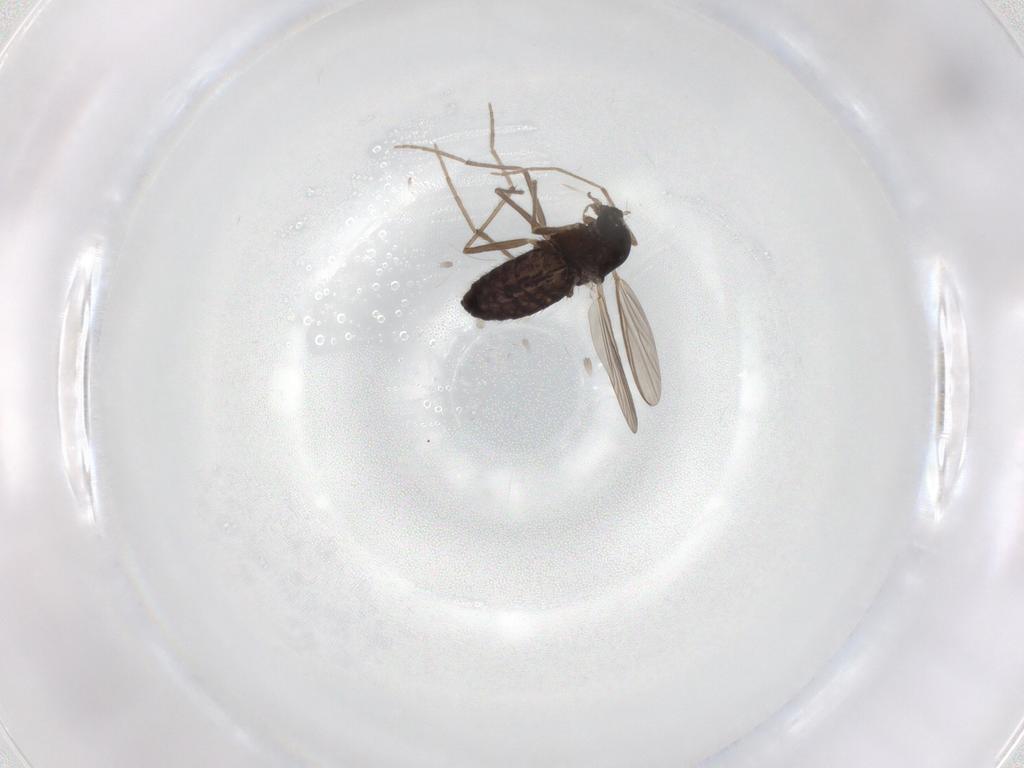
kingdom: Animalia
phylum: Arthropoda
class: Insecta
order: Diptera
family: Chironomidae
